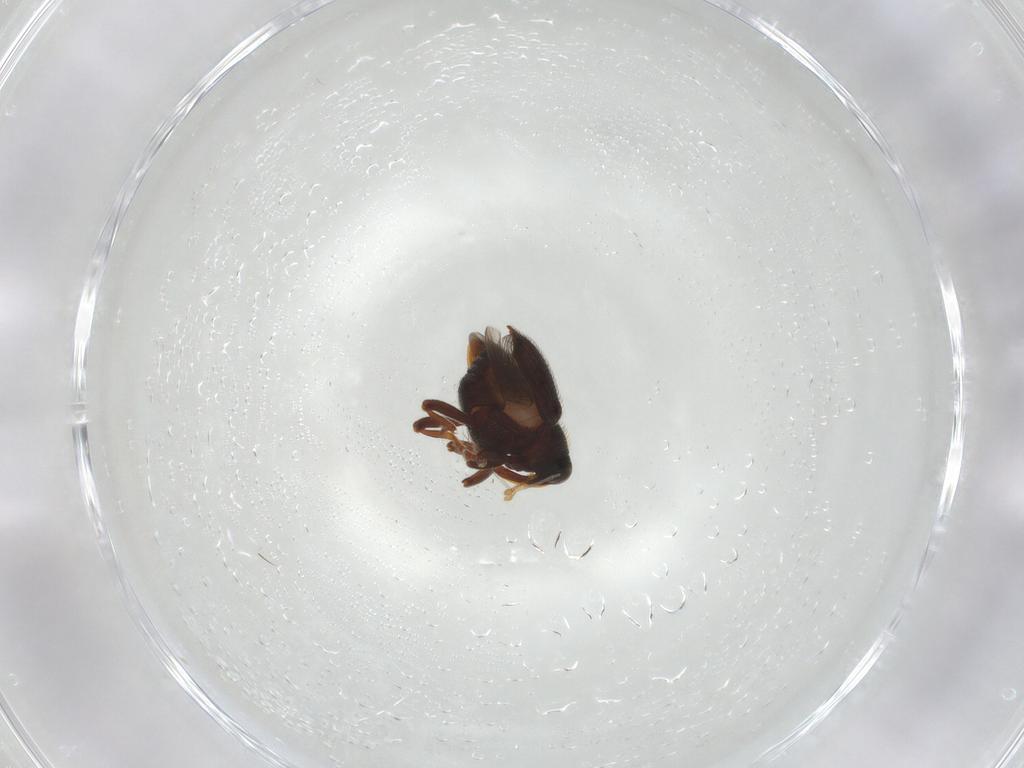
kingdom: Animalia
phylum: Arthropoda
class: Insecta
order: Coleoptera
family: Curculionidae
